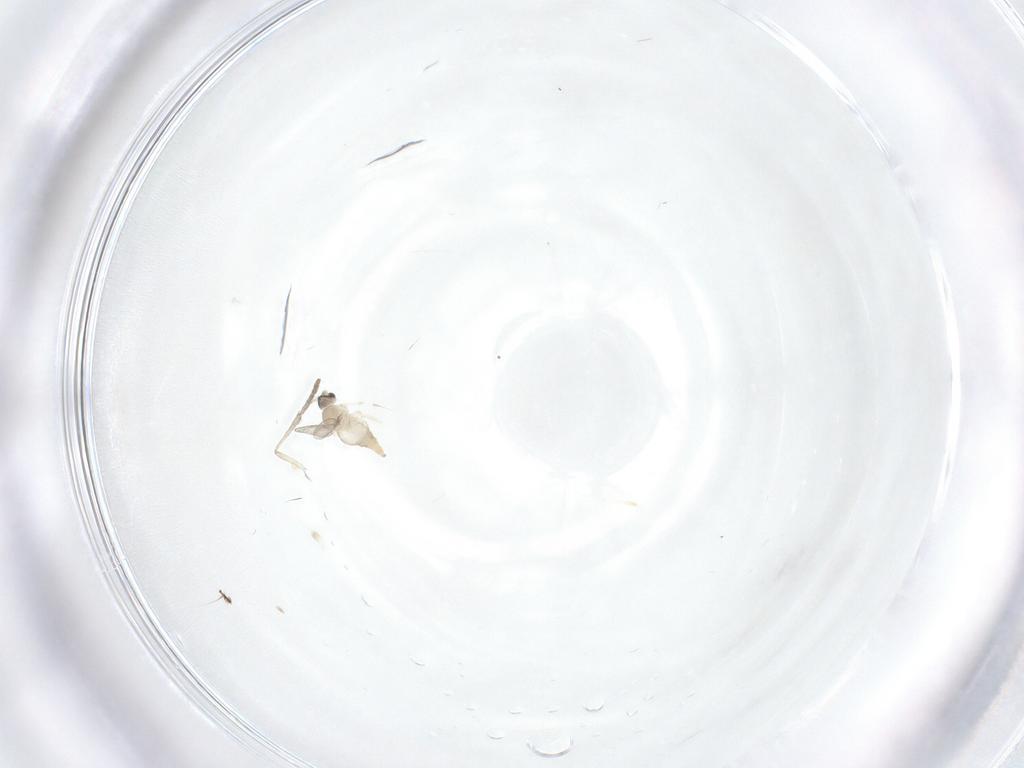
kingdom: Animalia
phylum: Arthropoda
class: Insecta
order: Diptera
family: Cecidomyiidae
